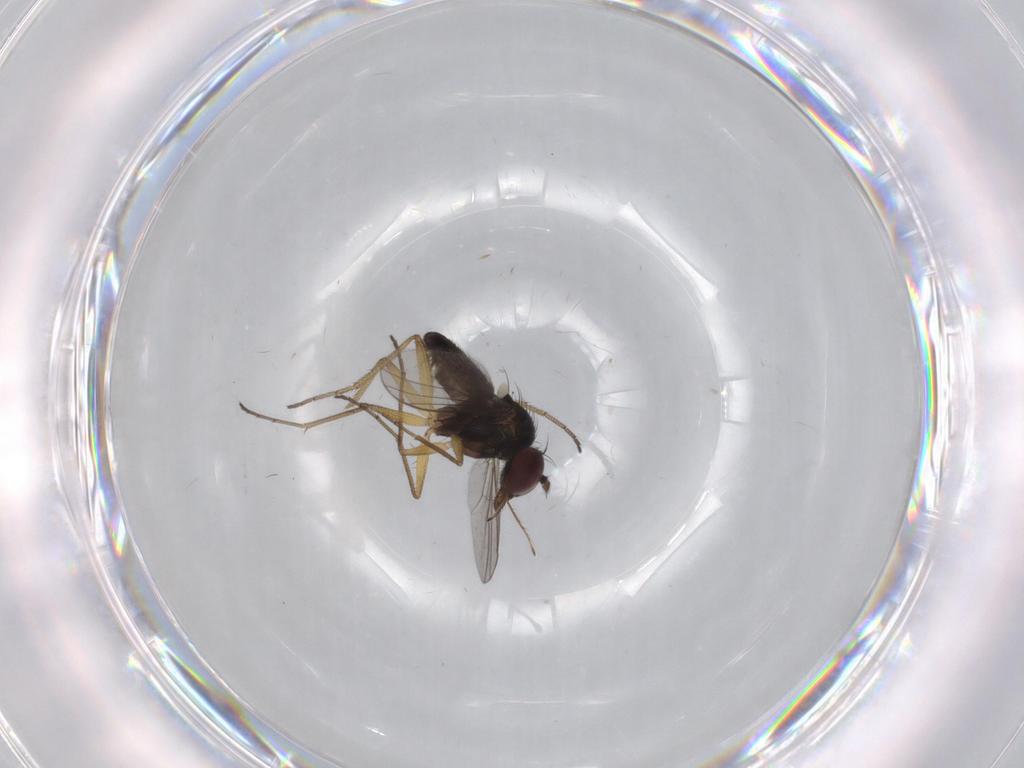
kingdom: Animalia
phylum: Arthropoda
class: Insecta
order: Diptera
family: Dolichopodidae
